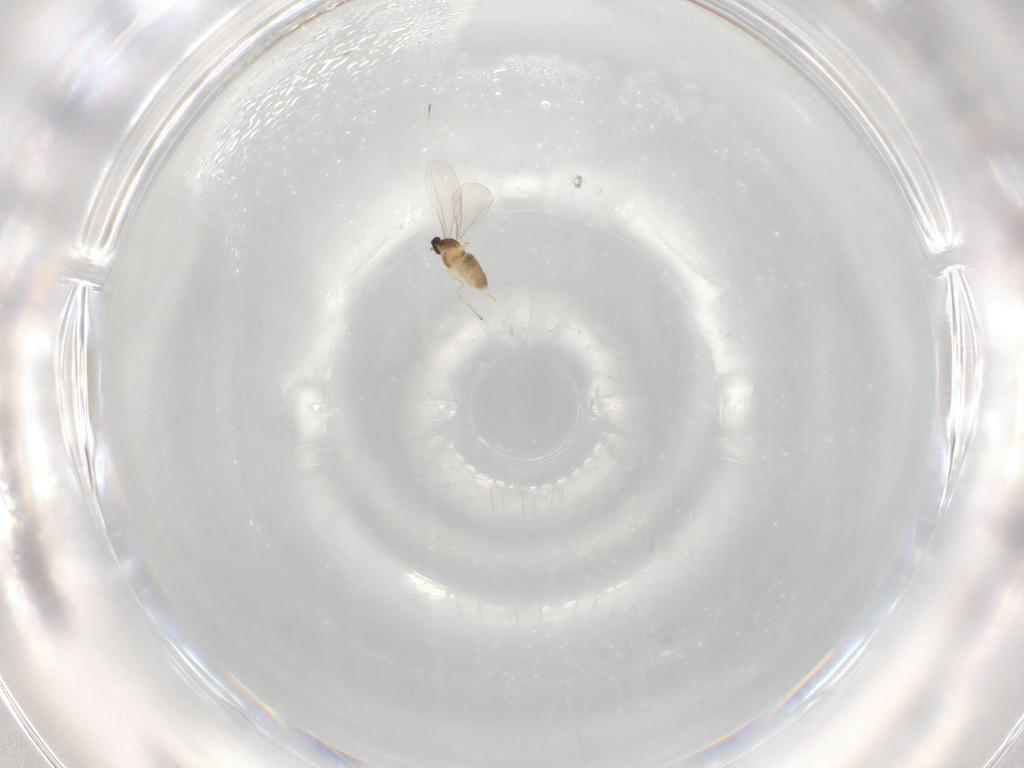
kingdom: Animalia
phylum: Arthropoda
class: Insecta
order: Diptera
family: Cecidomyiidae
